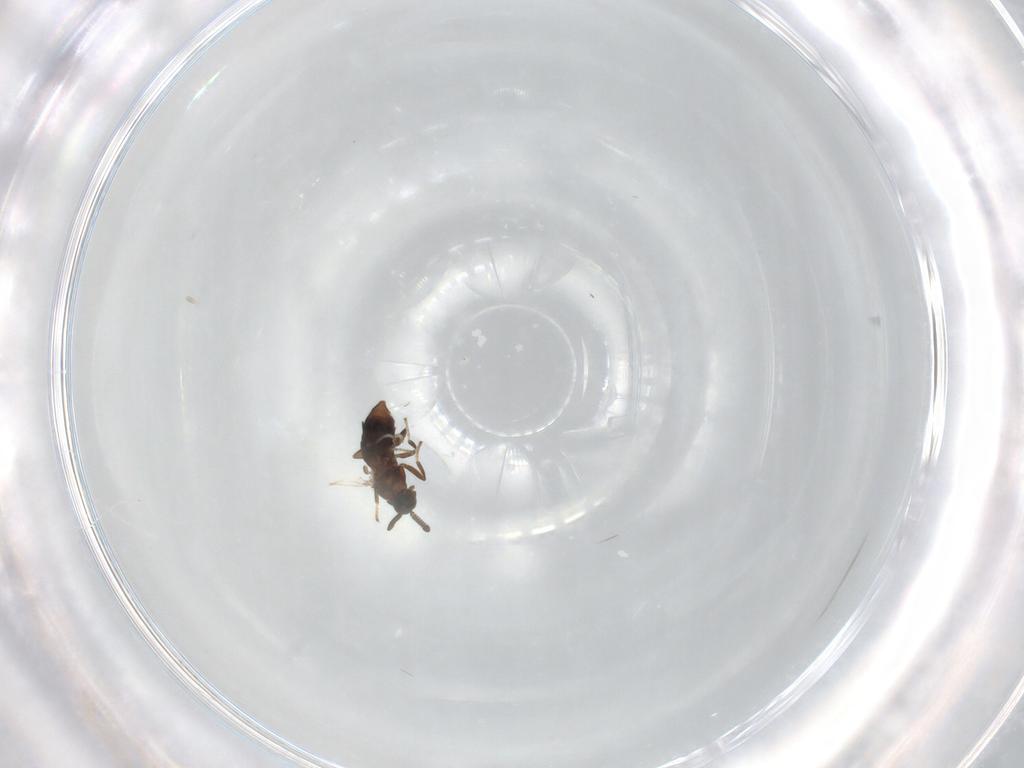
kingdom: Animalia
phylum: Arthropoda
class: Insecta
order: Diptera
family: Scatopsidae
